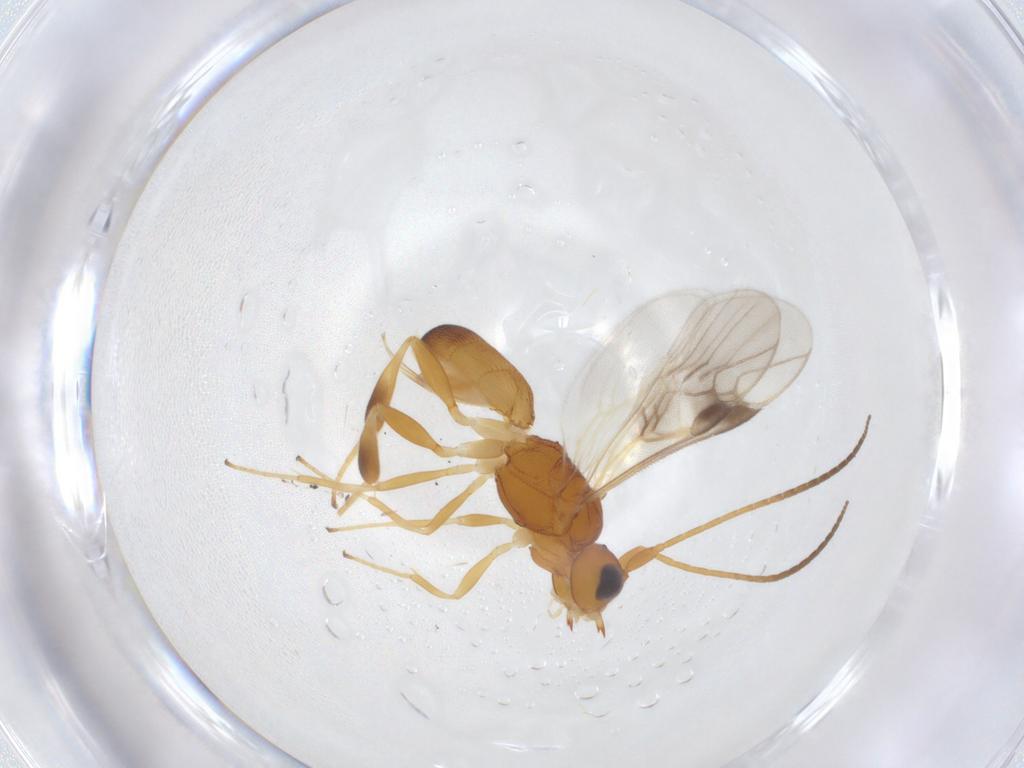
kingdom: Animalia
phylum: Arthropoda
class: Insecta
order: Hymenoptera
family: Braconidae
